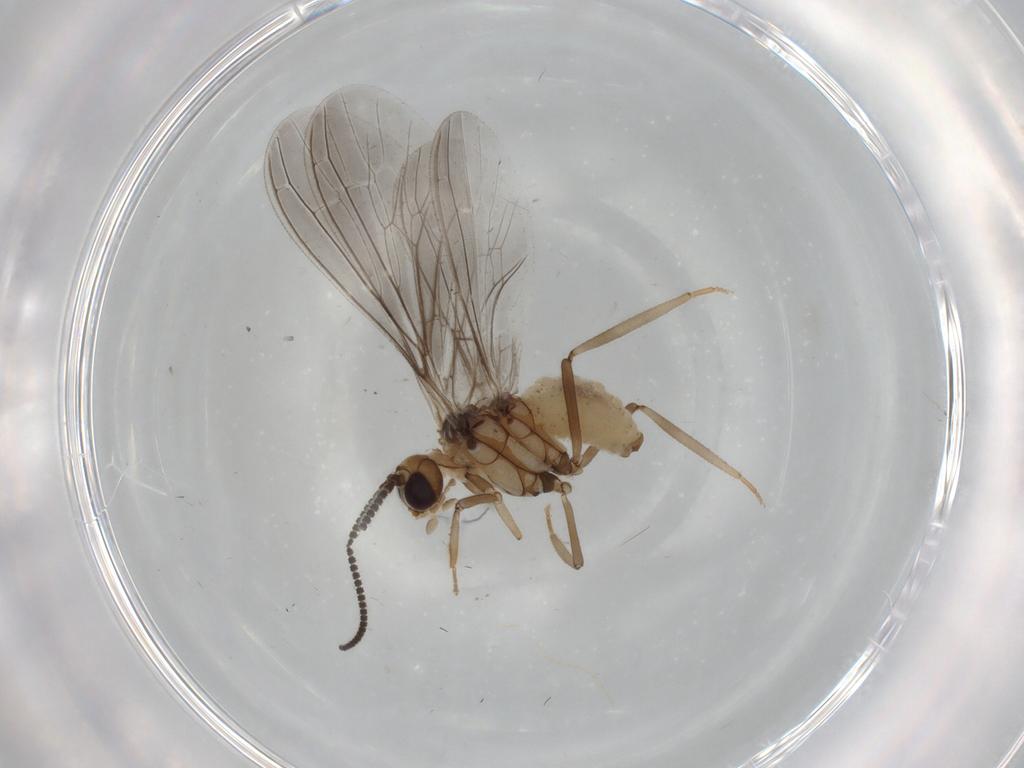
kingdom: Animalia
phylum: Arthropoda
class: Insecta
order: Neuroptera
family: Coniopterygidae
